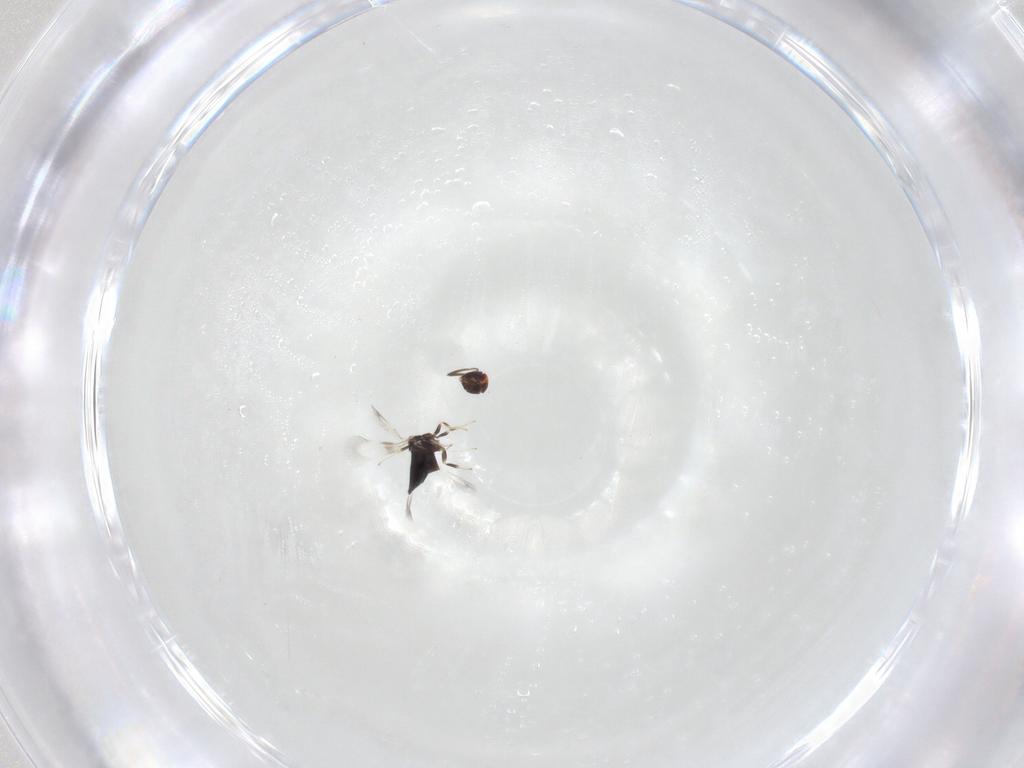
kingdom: Animalia
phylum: Arthropoda
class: Insecta
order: Hymenoptera
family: Signiphoridae
